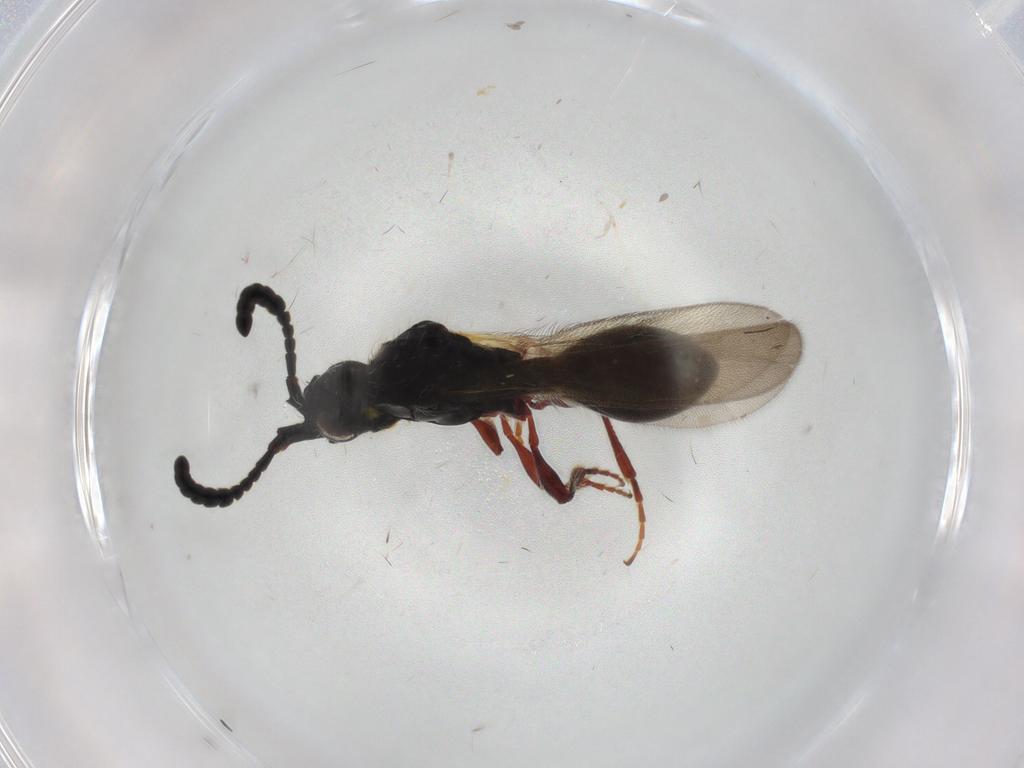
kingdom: Animalia
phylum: Arthropoda
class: Insecta
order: Hymenoptera
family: Diapriidae
